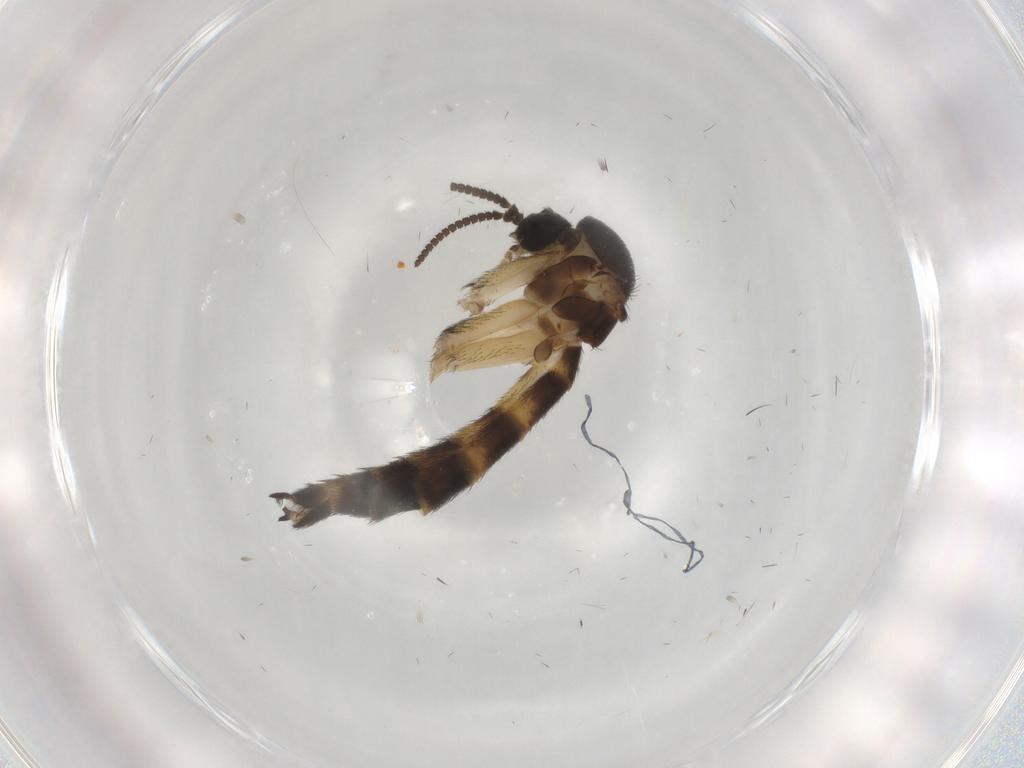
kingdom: Animalia
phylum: Arthropoda
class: Insecta
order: Diptera
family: Keroplatidae
